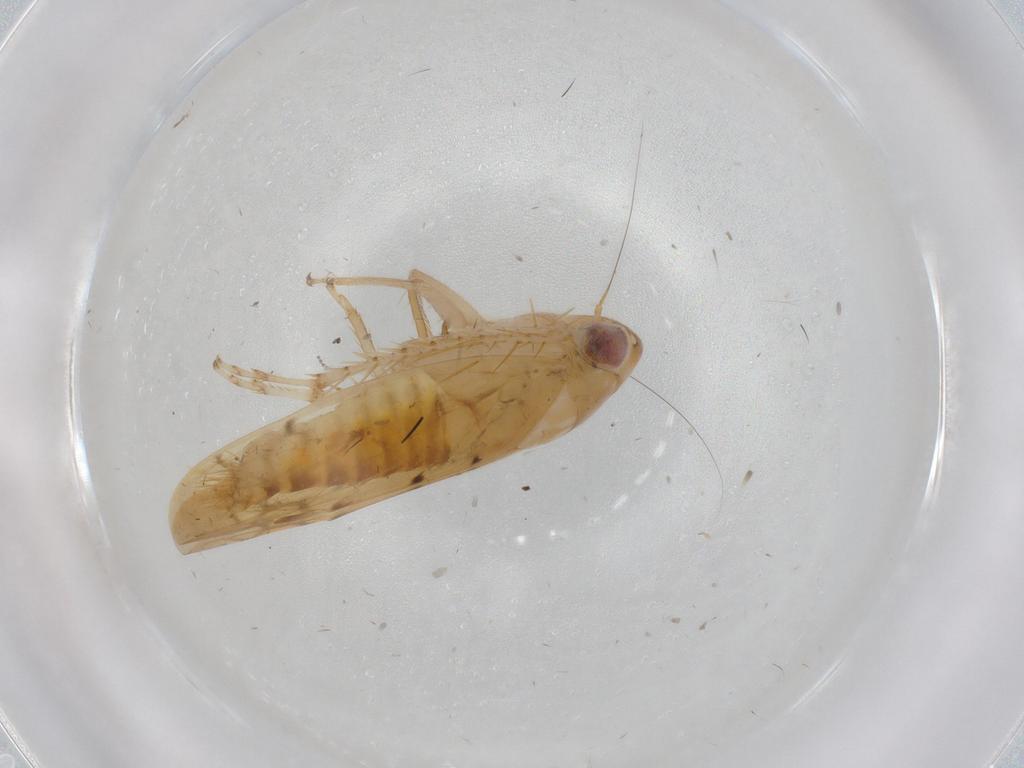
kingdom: Animalia
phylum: Arthropoda
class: Insecta
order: Hemiptera
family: Cicadellidae
